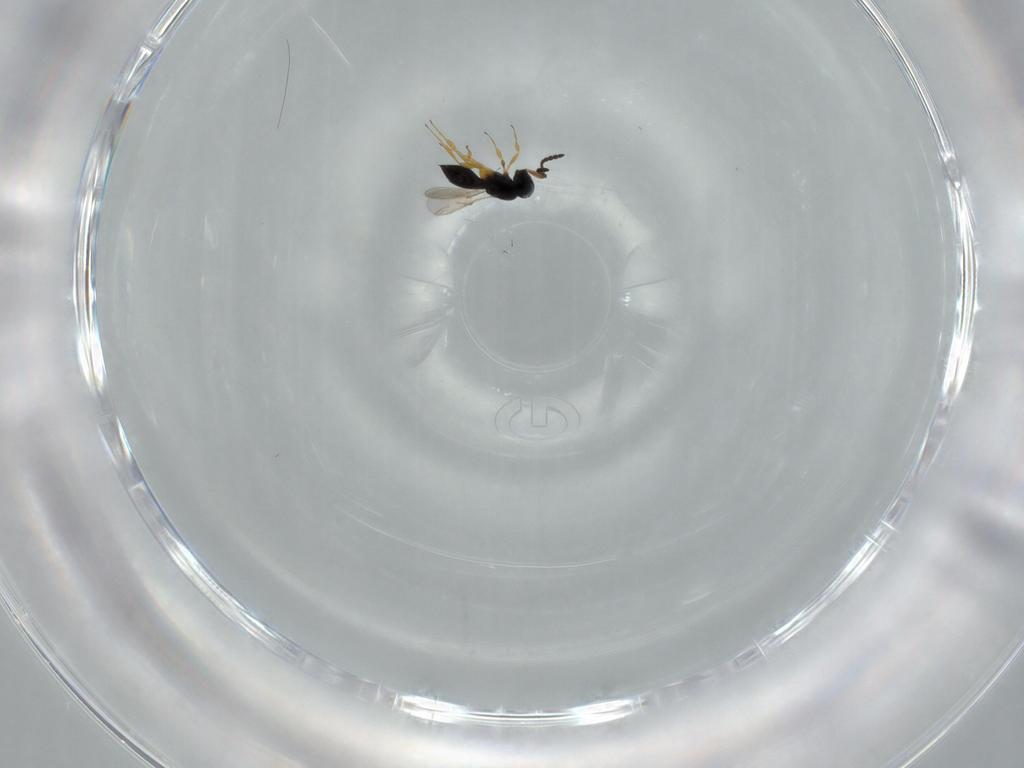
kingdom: Animalia
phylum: Arthropoda
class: Insecta
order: Hymenoptera
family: Scelionidae
